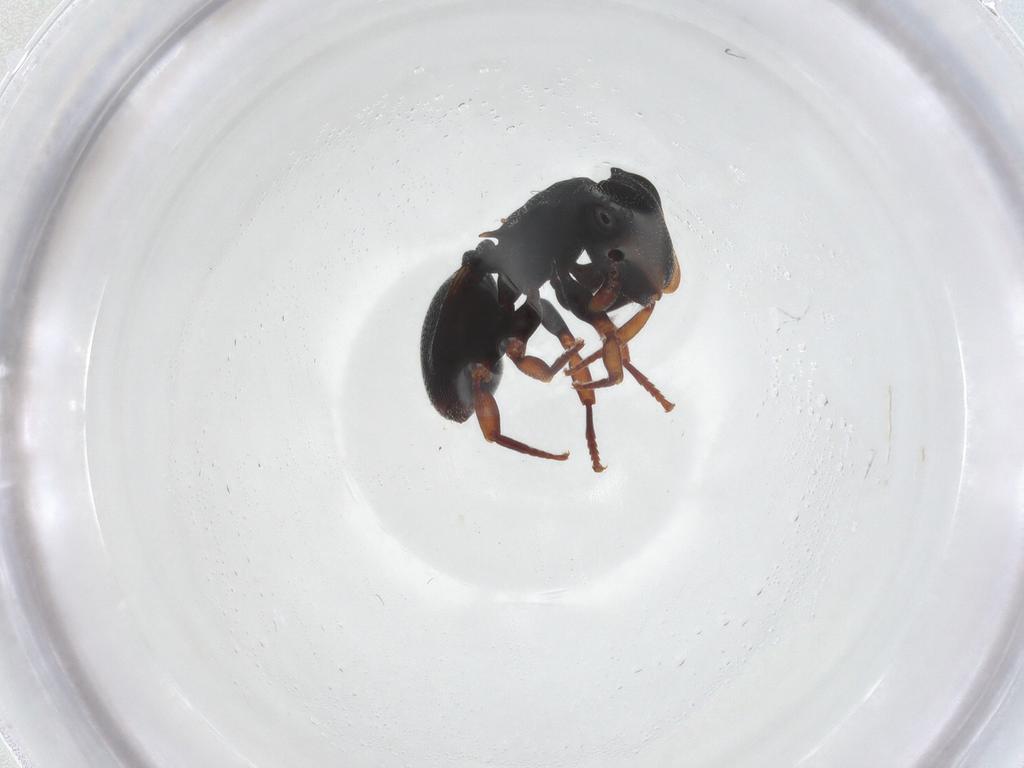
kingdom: Animalia
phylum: Arthropoda
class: Insecta
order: Hymenoptera
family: Formicidae
